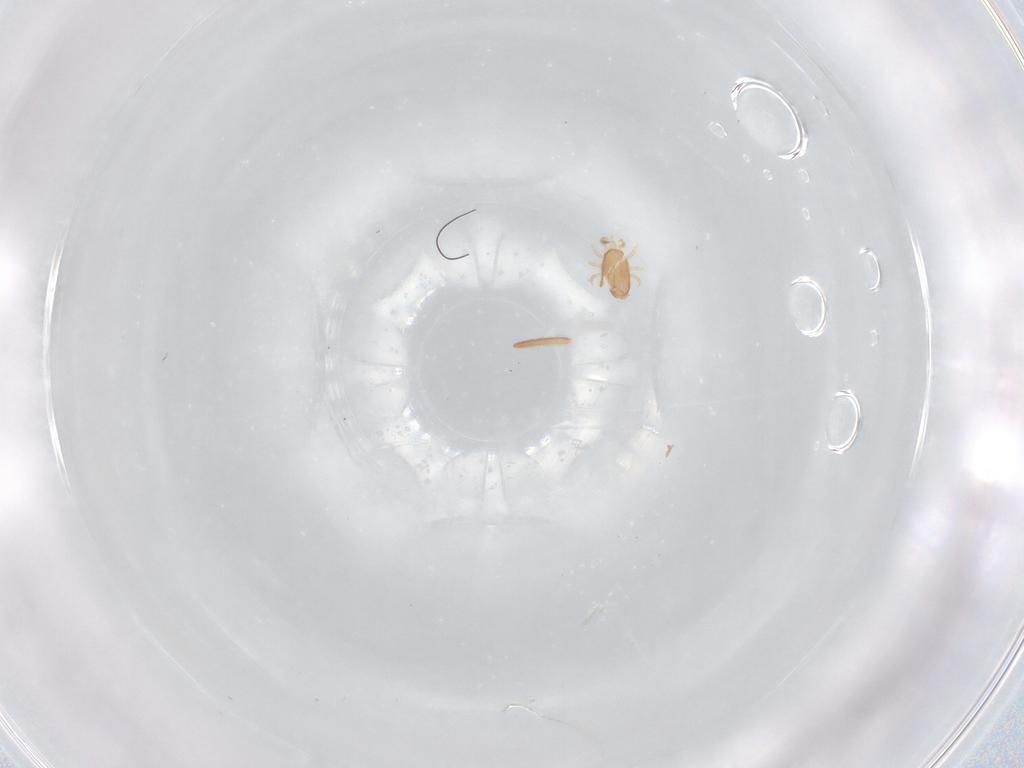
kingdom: Animalia
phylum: Arthropoda
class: Arachnida
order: Mesostigmata
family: Ascidae
